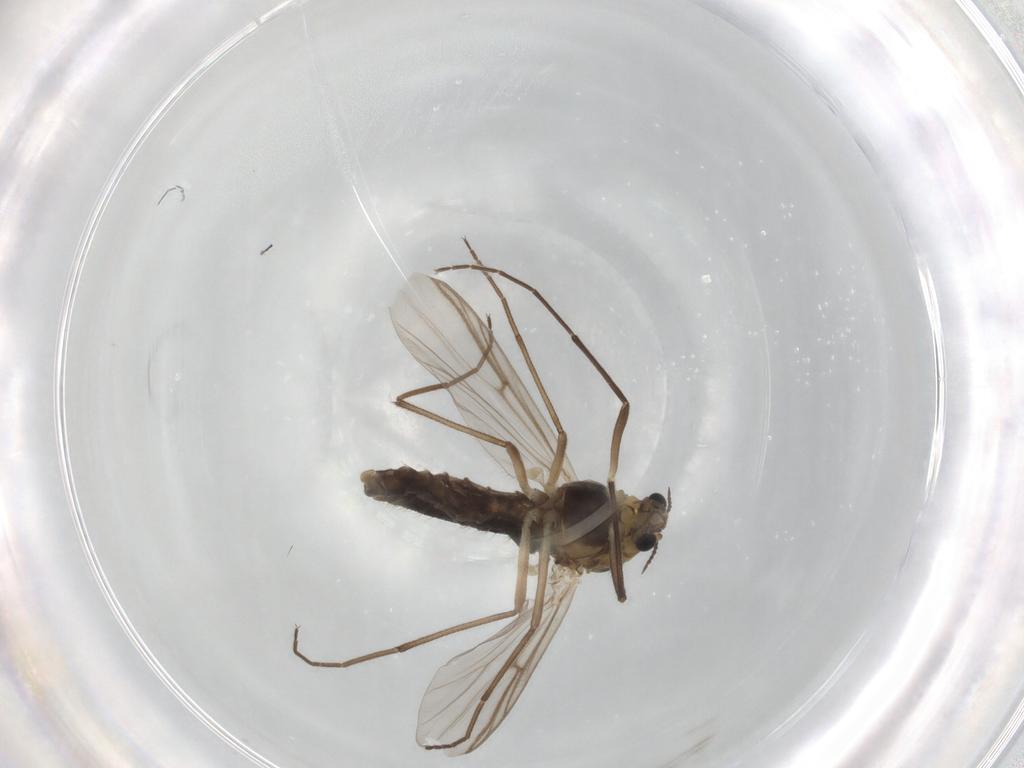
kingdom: Animalia
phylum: Arthropoda
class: Insecta
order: Diptera
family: Chironomidae
